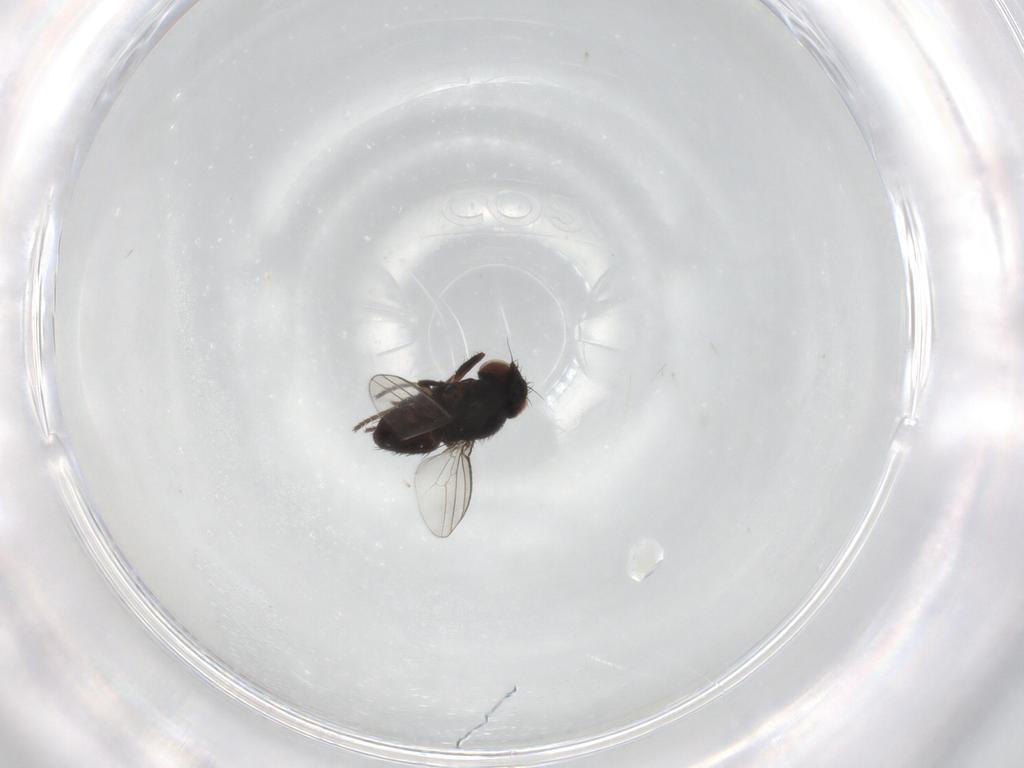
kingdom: Animalia
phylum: Arthropoda
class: Insecta
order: Diptera
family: Milichiidae
